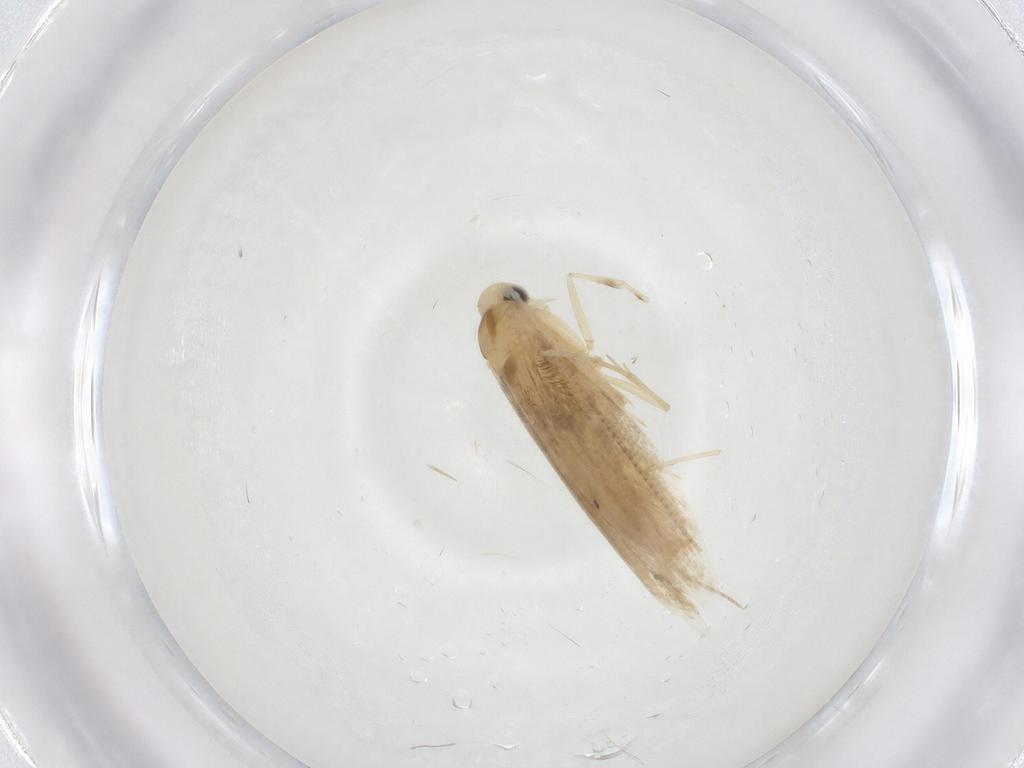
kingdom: Animalia
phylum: Arthropoda
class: Insecta
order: Lepidoptera
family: Gracillariidae
